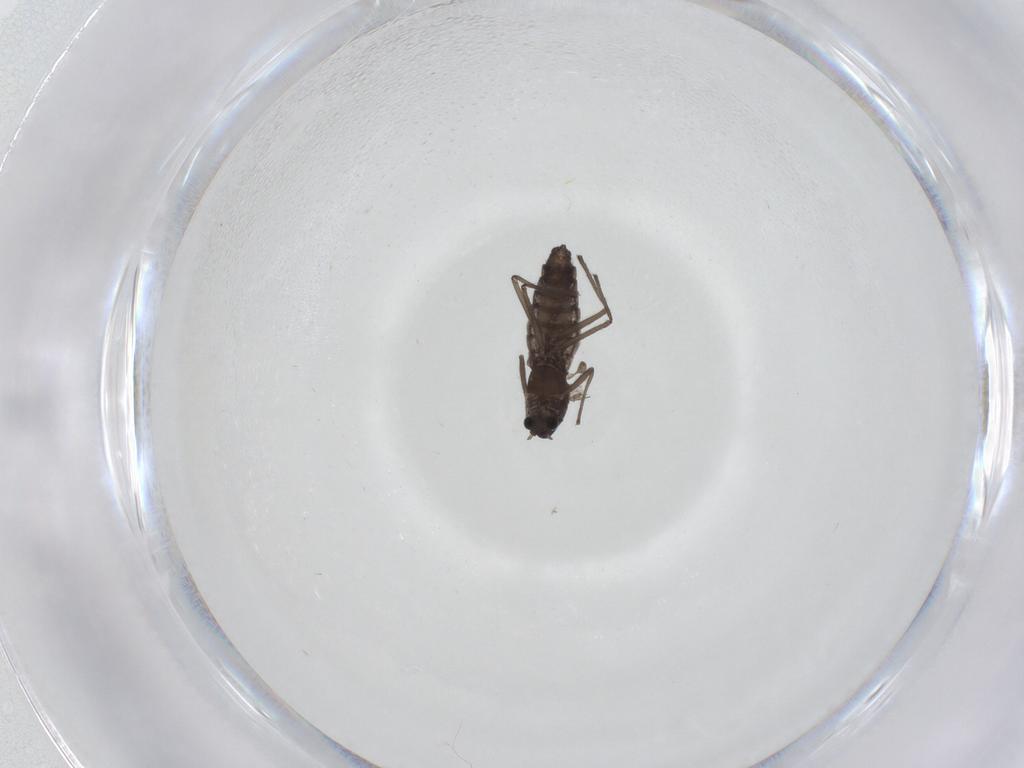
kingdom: Animalia
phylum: Arthropoda
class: Insecta
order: Diptera
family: Chironomidae
